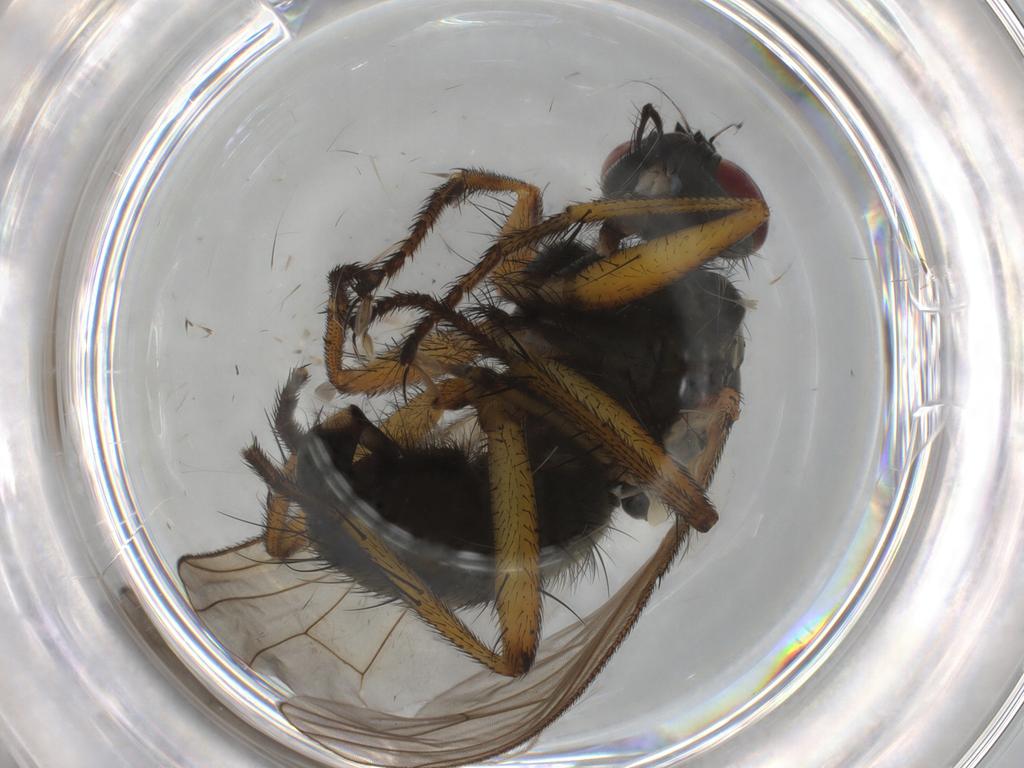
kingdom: Animalia
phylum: Arthropoda
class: Insecta
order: Diptera
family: Muscidae
